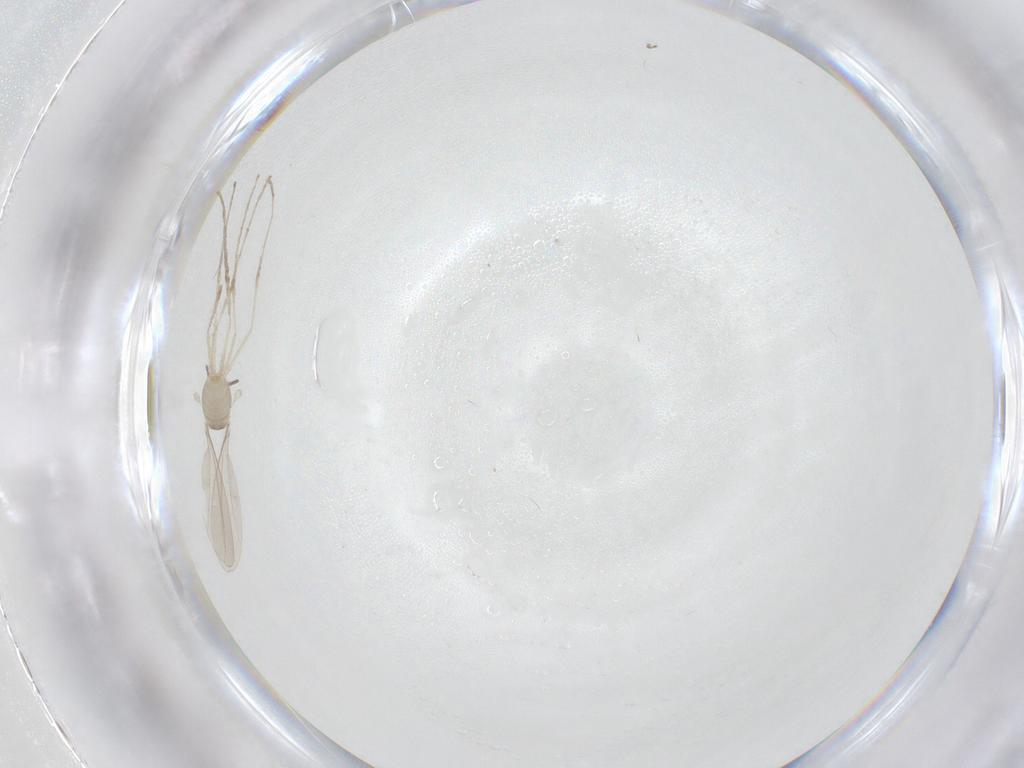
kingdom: Animalia
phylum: Arthropoda
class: Insecta
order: Diptera
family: Cecidomyiidae
